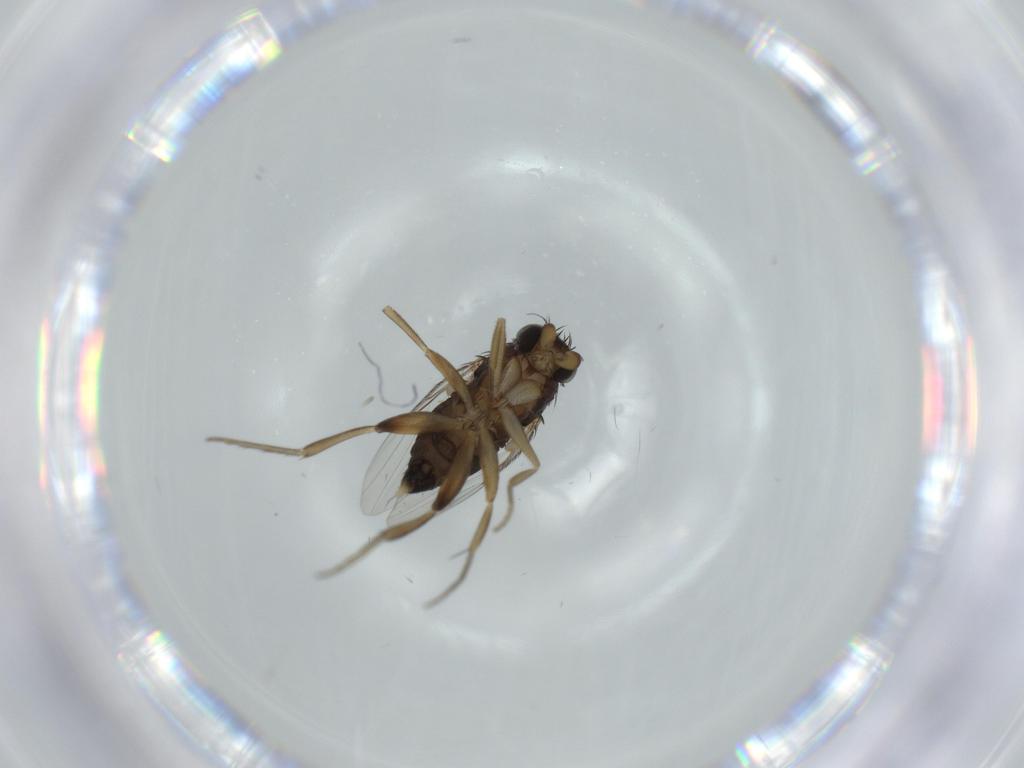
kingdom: Animalia
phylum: Arthropoda
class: Insecta
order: Diptera
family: Phoridae
